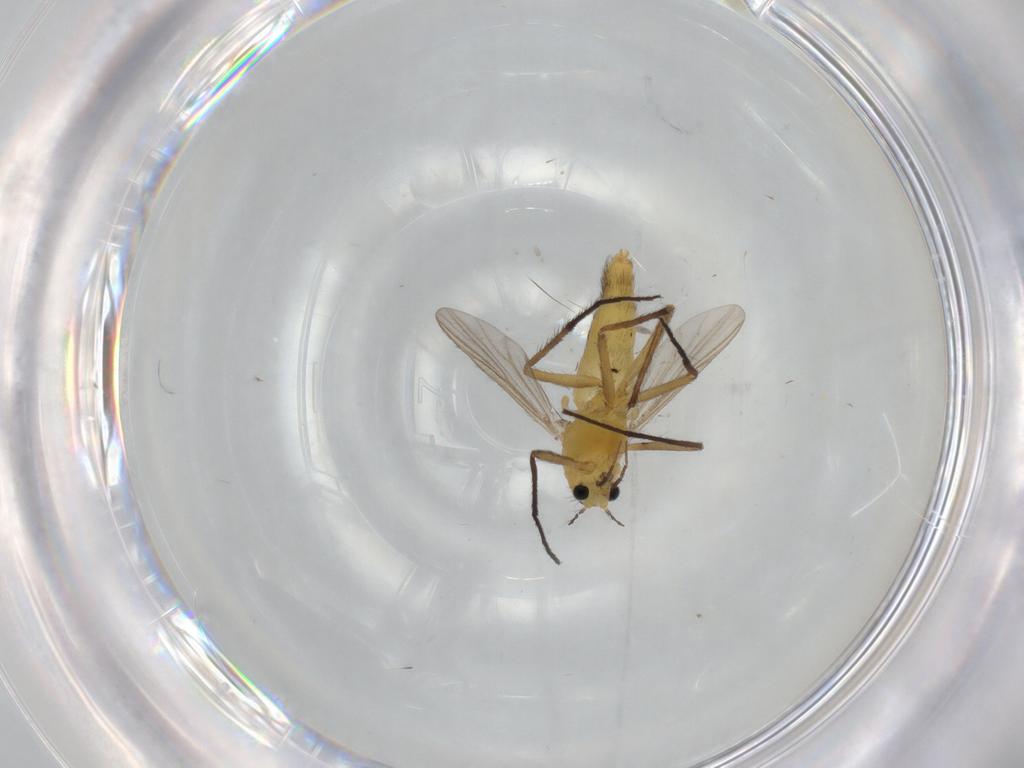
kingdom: Animalia
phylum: Arthropoda
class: Insecta
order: Diptera
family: Chironomidae
